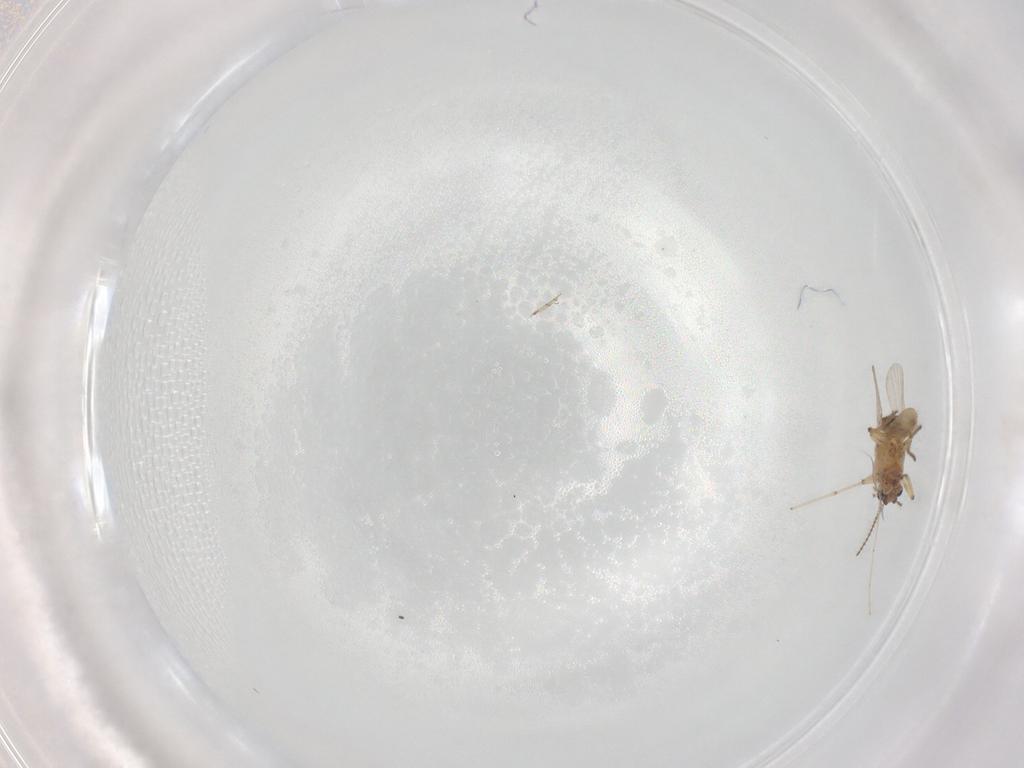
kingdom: Animalia
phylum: Arthropoda
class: Insecta
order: Diptera
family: Ceratopogonidae
